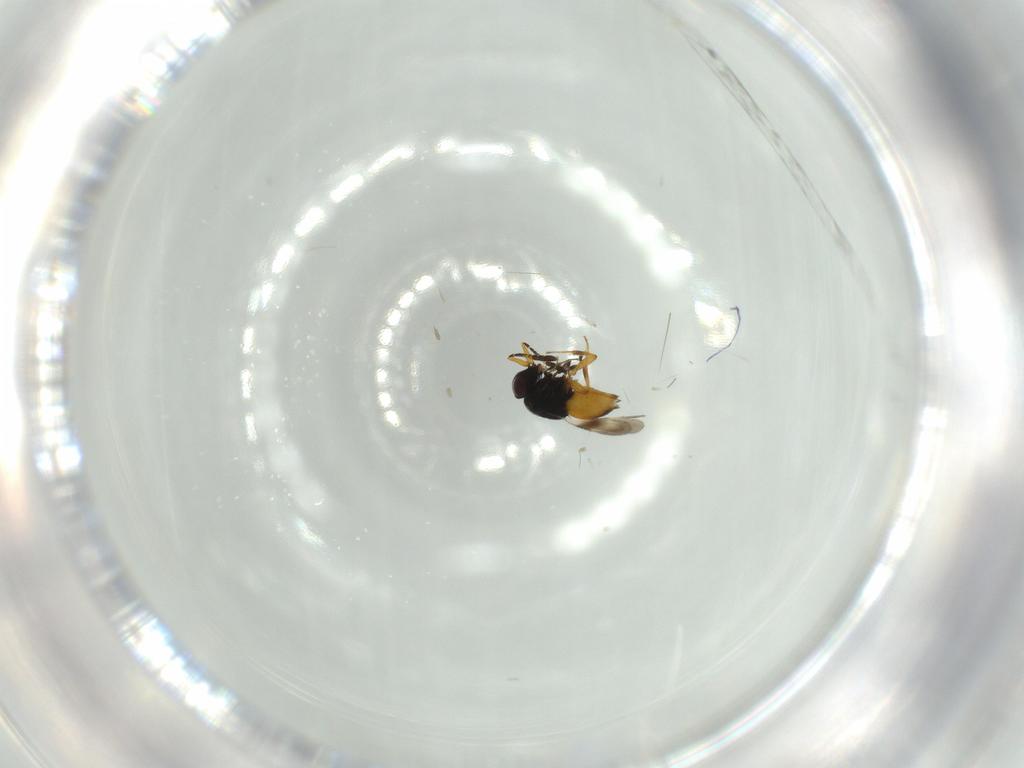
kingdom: Animalia
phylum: Arthropoda
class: Insecta
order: Hymenoptera
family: Ceraphronidae
